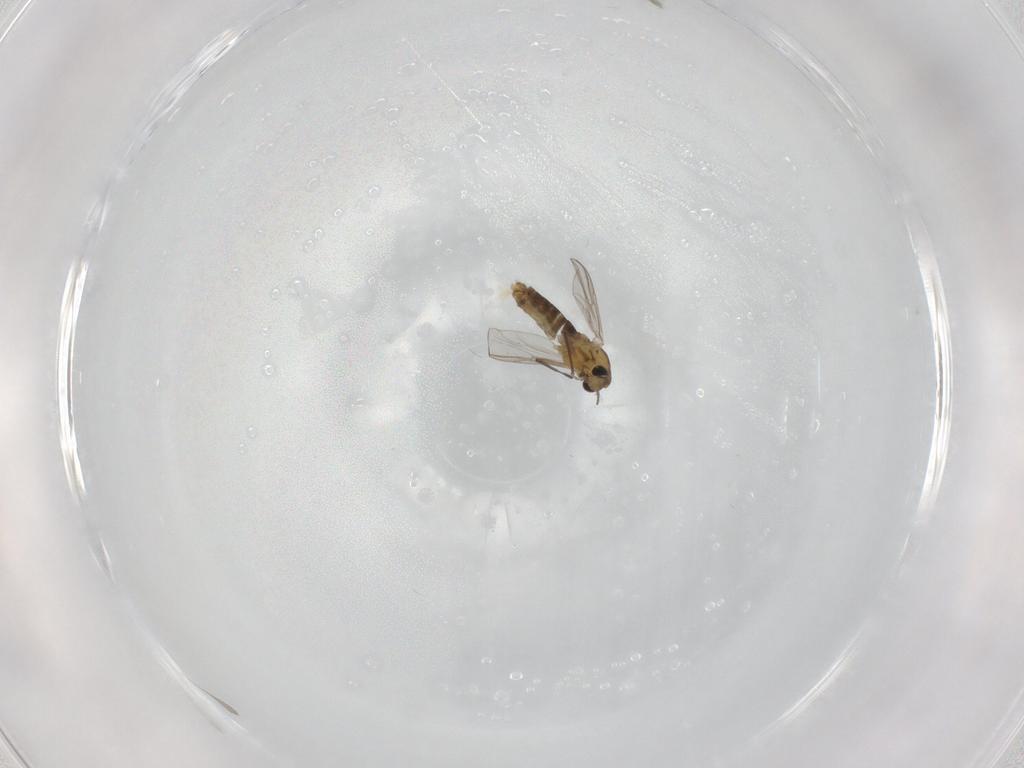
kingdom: Animalia
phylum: Arthropoda
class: Insecta
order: Diptera
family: Chironomidae
